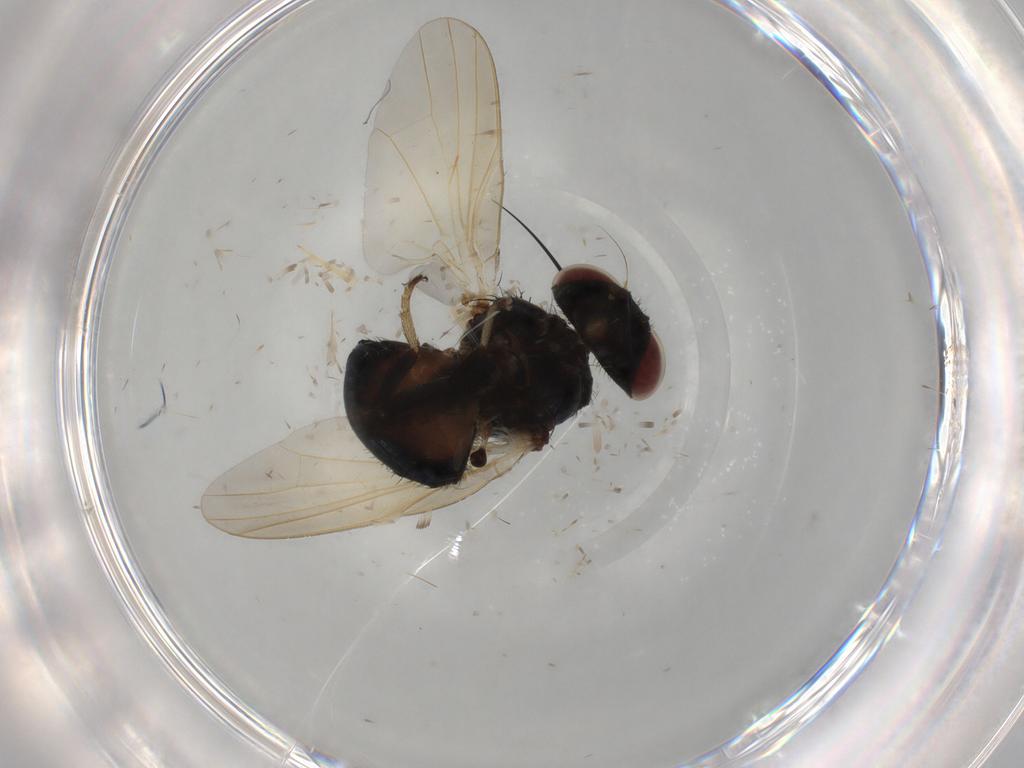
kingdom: Animalia
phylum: Arthropoda
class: Insecta
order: Diptera
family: Lonchaeidae
